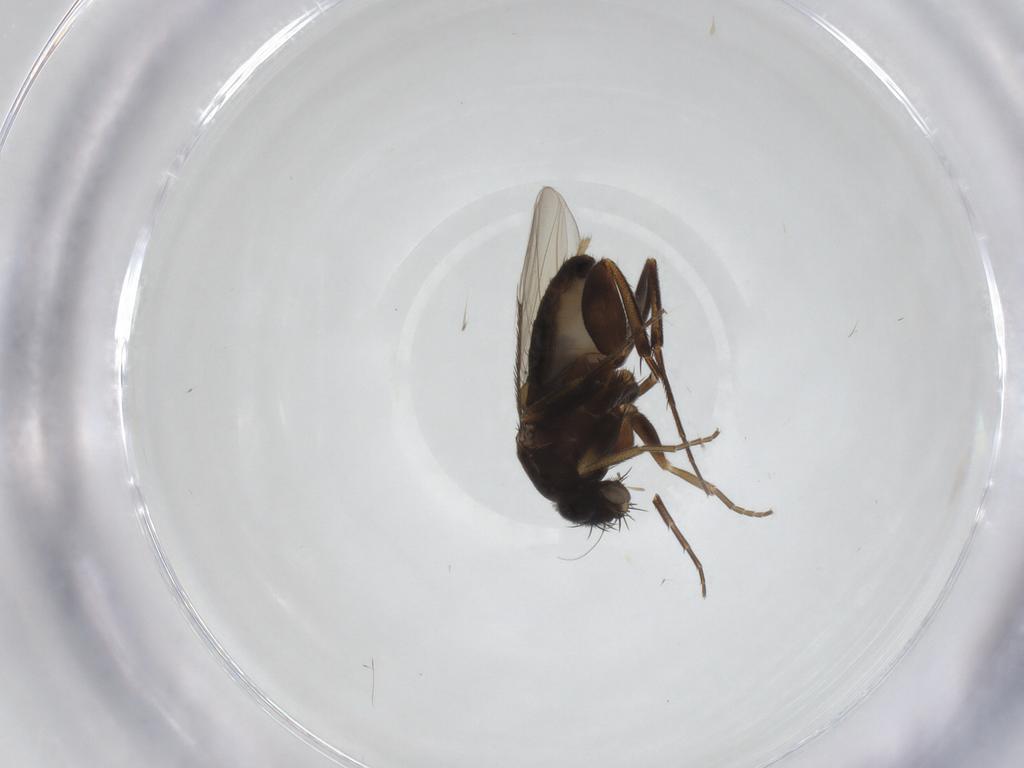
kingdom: Animalia
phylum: Arthropoda
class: Insecta
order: Diptera
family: Phoridae
